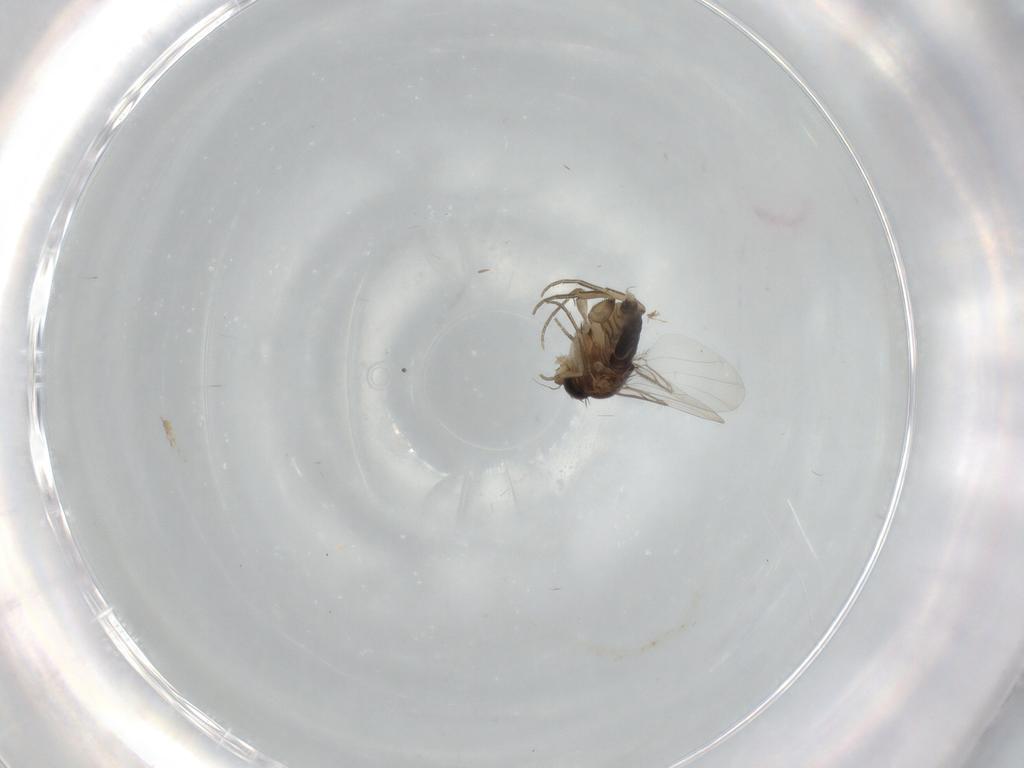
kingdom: Animalia
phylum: Arthropoda
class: Insecta
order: Diptera
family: Phoridae
